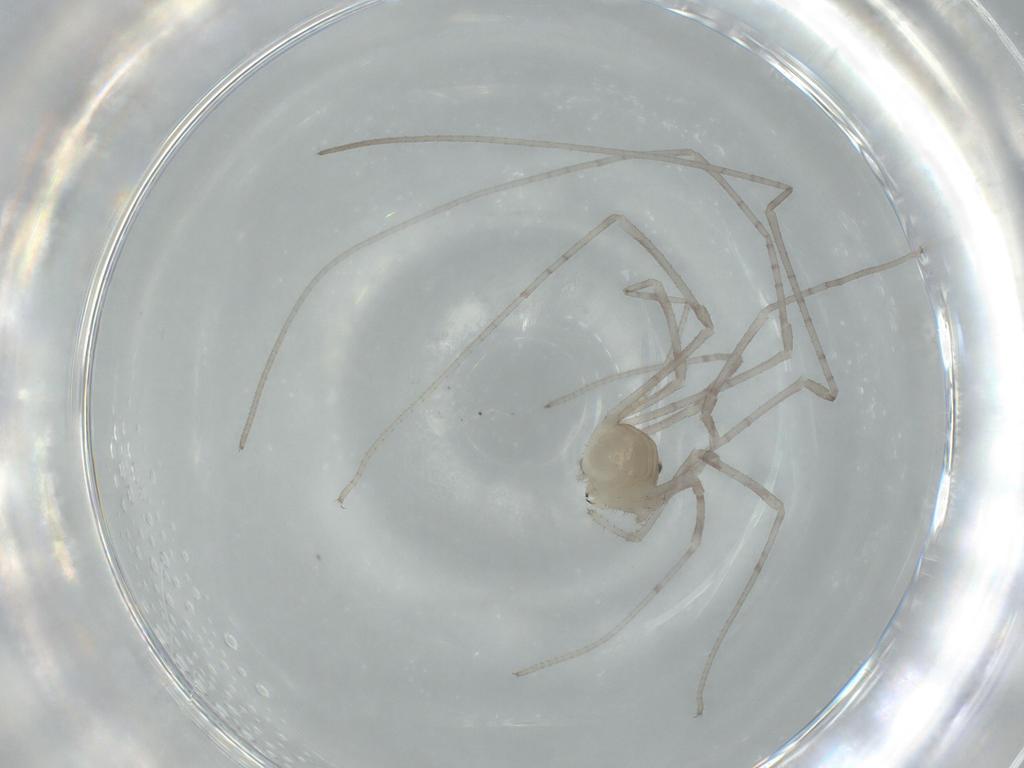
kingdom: Animalia
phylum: Arthropoda
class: Arachnida
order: Opiliones
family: Sclerosomatidae
